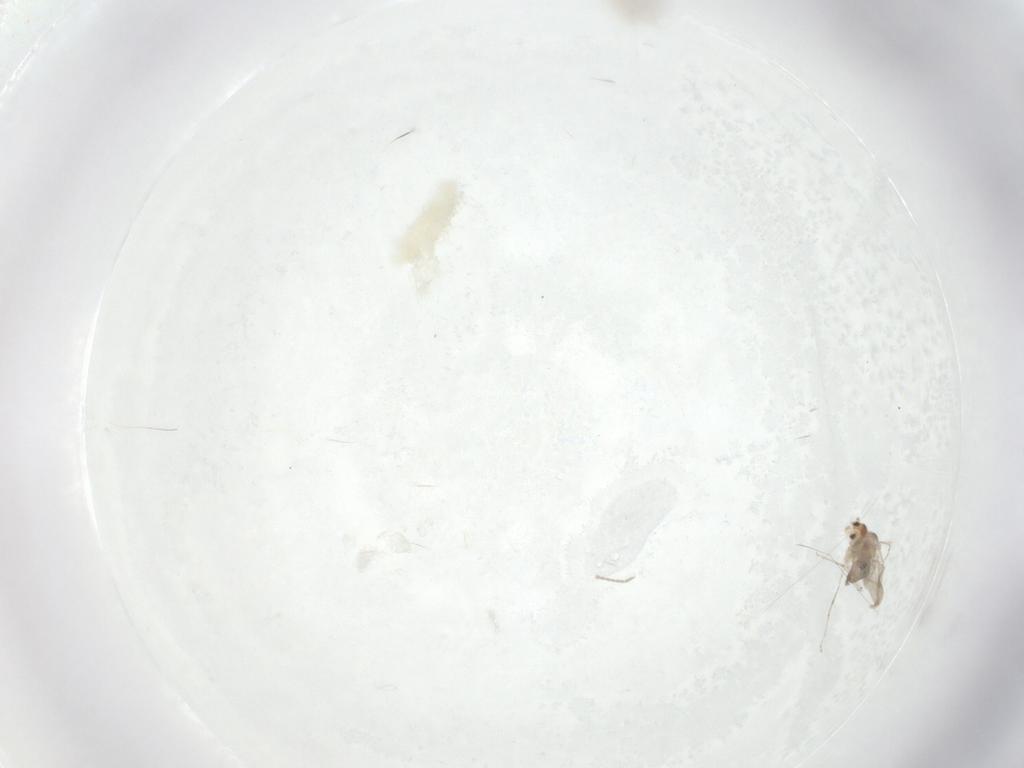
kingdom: Animalia
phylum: Arthropoda
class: Insecta
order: Diptera
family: Cecidomyiidae
